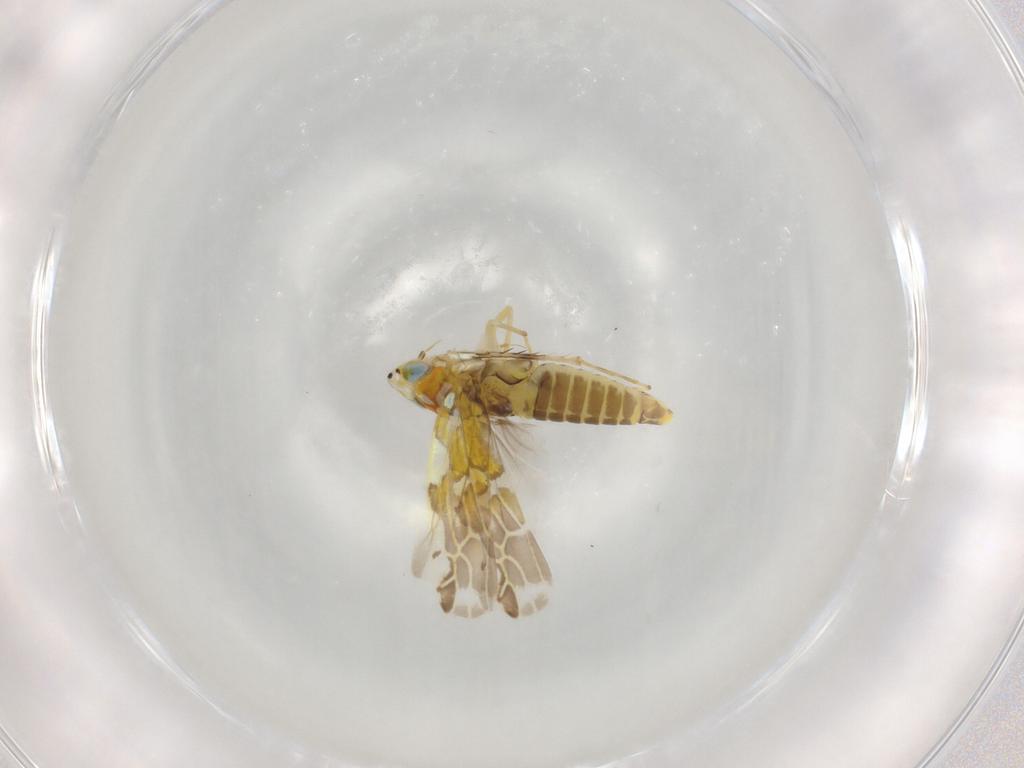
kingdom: Animalia
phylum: Arthropoda
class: Insecta
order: Hemiptera
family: Cicadellidae
